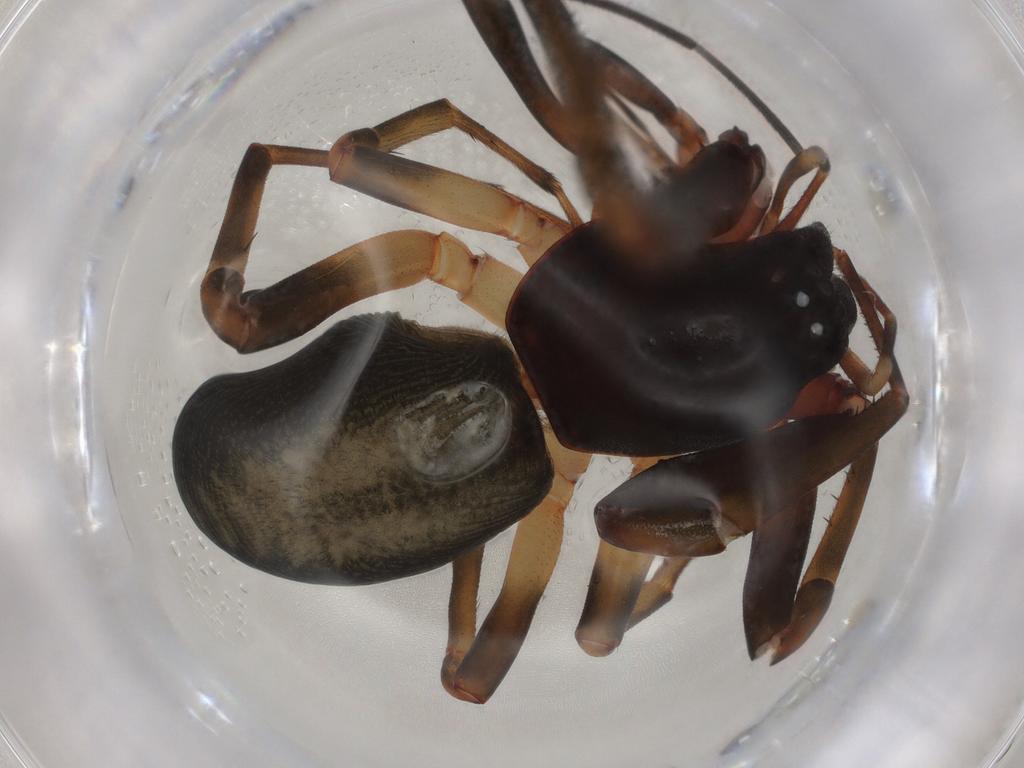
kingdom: Animalia
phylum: Arthropoda
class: Arachnida
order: Araneae
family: Trachelidae
